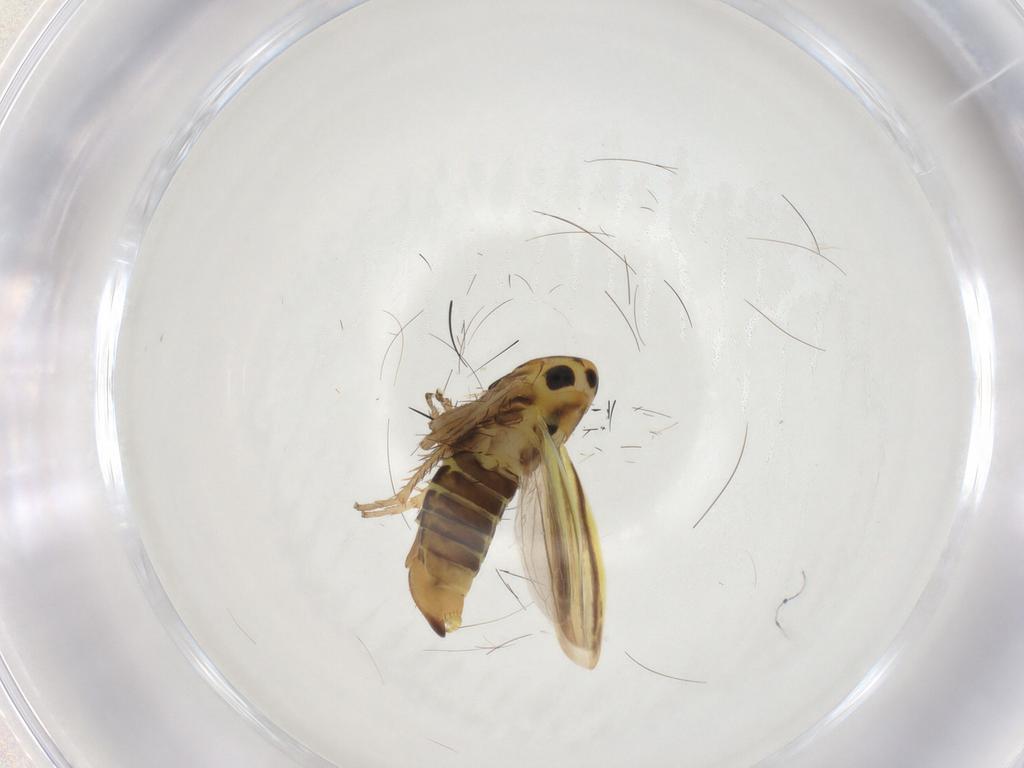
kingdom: Animalia
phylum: Arthropoda
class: Insecta
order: Hemiptera
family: Cicadellidae
